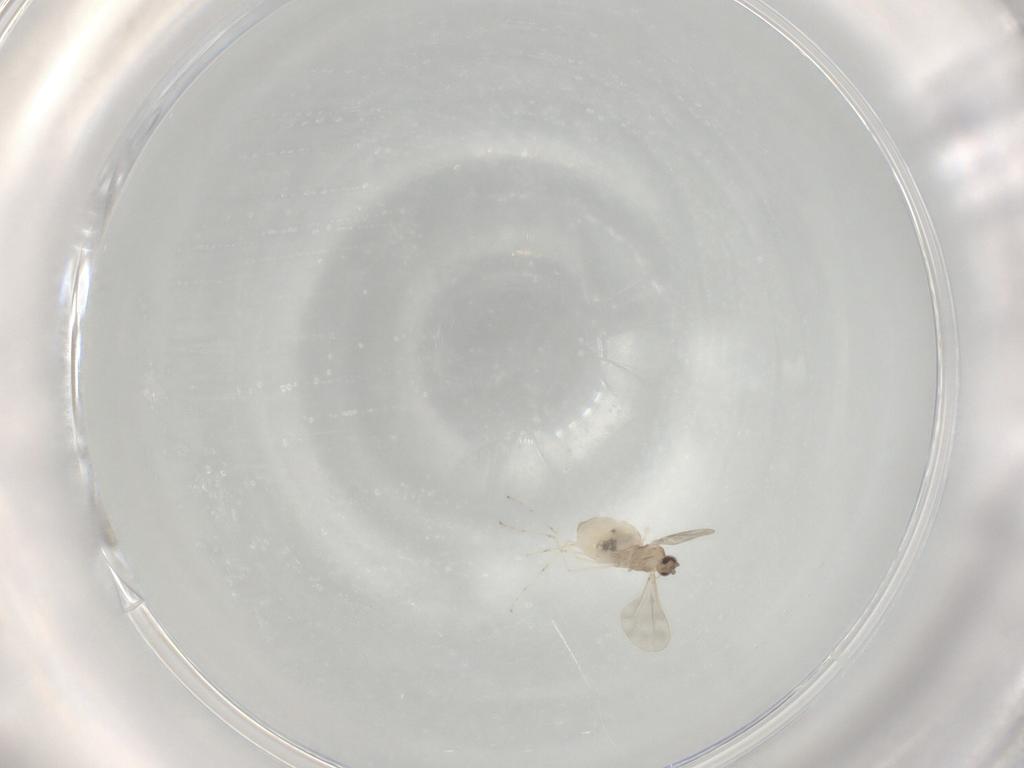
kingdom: Animalia
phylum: Arthropoda
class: Insecta
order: Diptera
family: Cecidomyiidae
